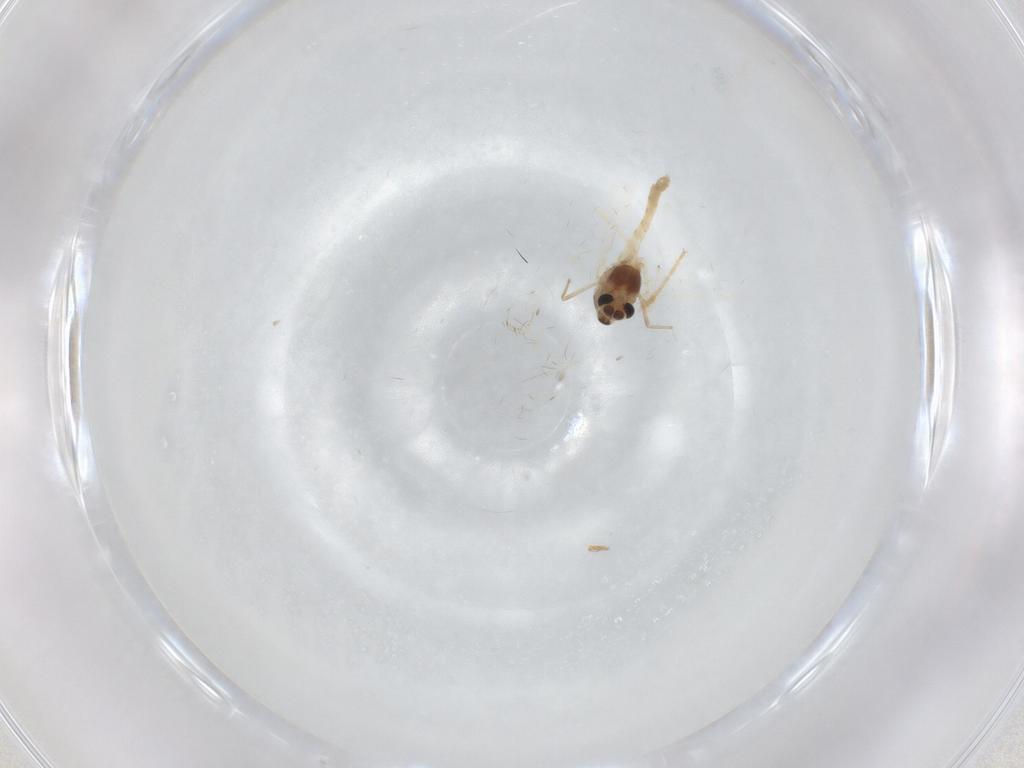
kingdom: Animalia
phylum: Arthropoda
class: Insecta
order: Diptera
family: Chironomidae
